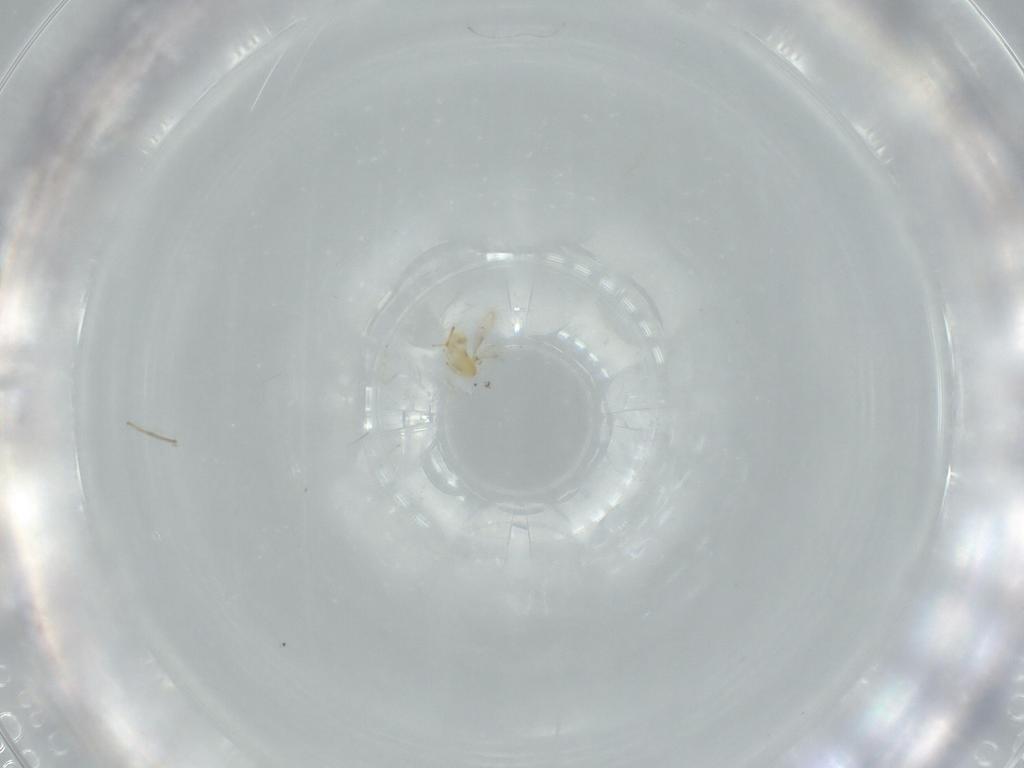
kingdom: Animalia
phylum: Arthropoda
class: Insecta
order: Hymenoptera
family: Aphelinidae
